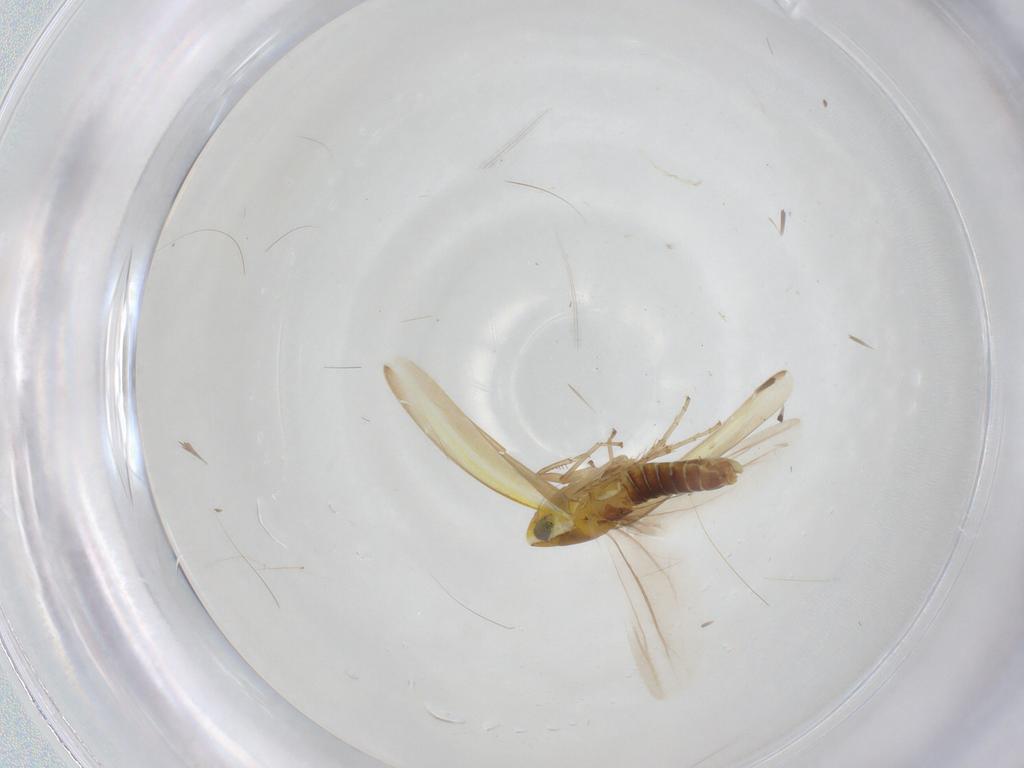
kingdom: Animalia
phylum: Arthropoda
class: Insecta
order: Hemiptera
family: Cicadellidae
